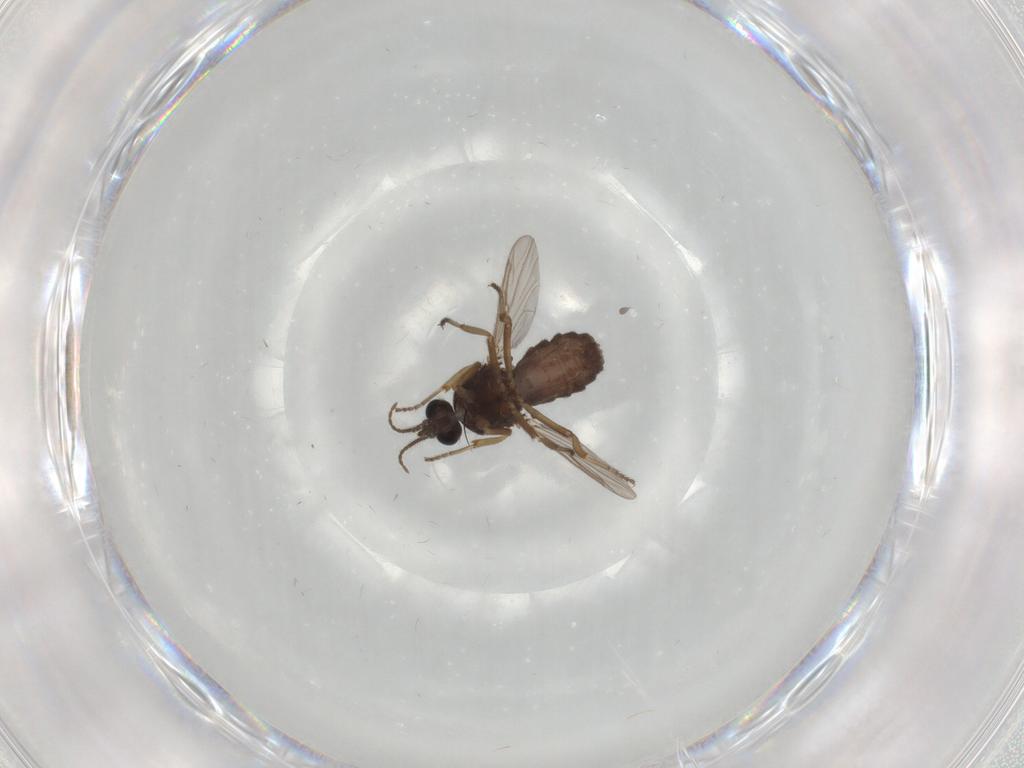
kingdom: Animalia
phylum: Arthropoda
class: Insecta
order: Diptera
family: Ceratopogonidae
